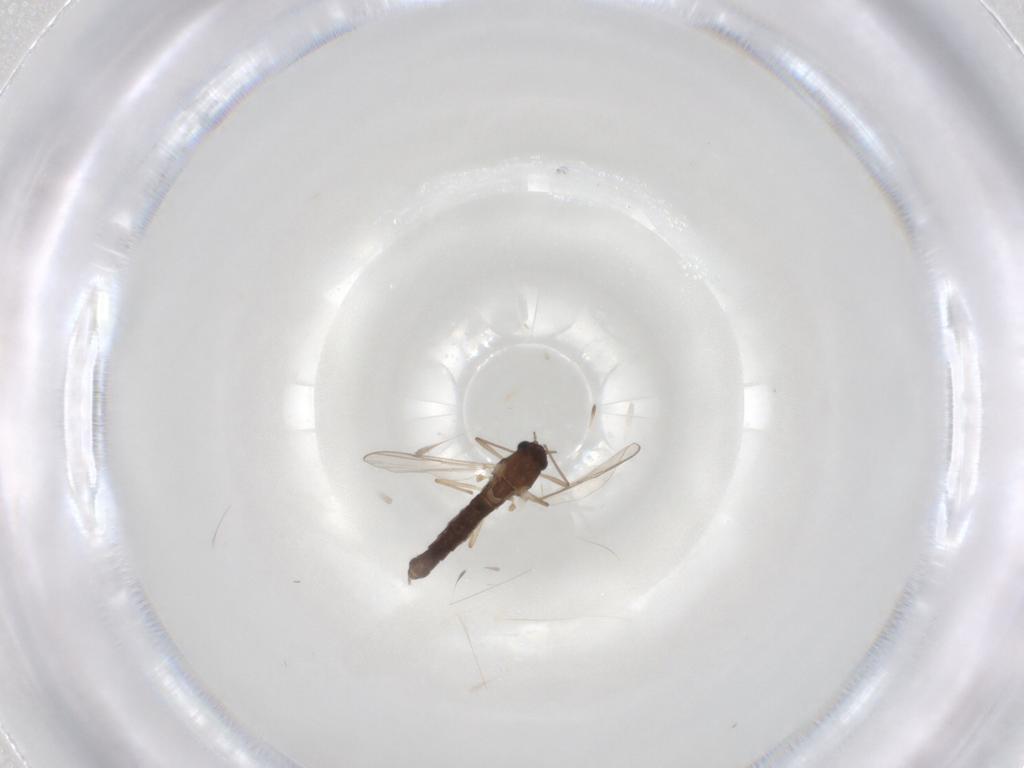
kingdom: Animalia
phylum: Arthropoda
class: Insecta
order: Diptera
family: Chironomidae
